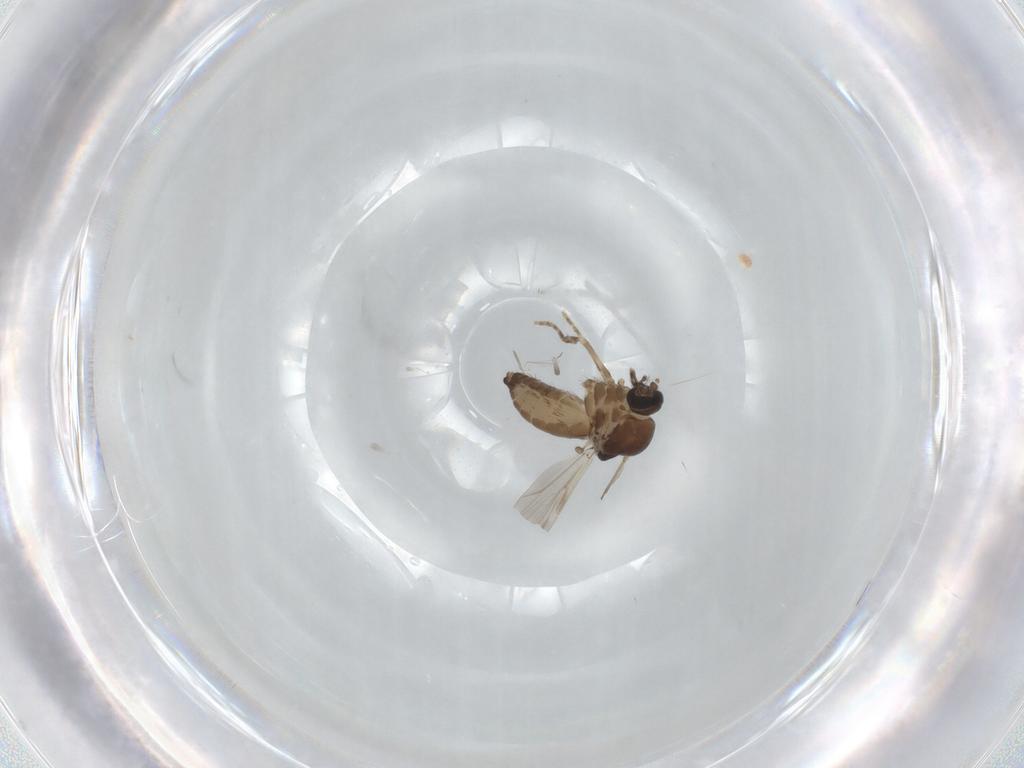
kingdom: Animalia
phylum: Arthropoda
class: Insecta
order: Diptera
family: Ceratopogonidae
